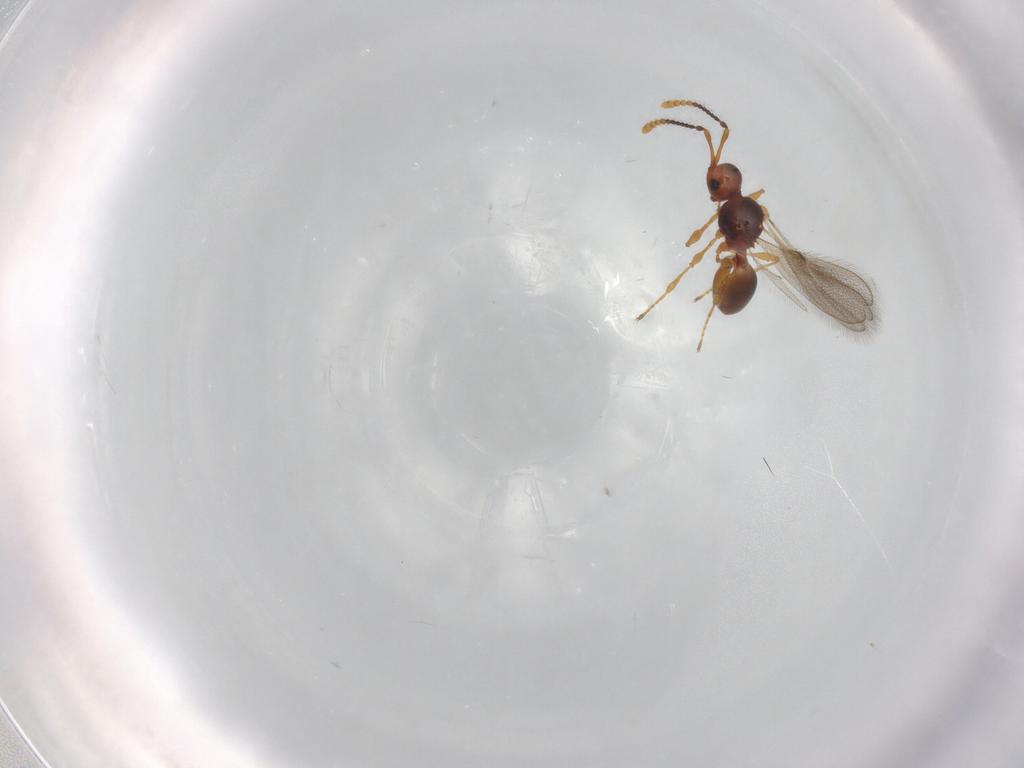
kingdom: Animalia
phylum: Arthropoda
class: Insecta
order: Hymenoptera
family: Diapriidae
